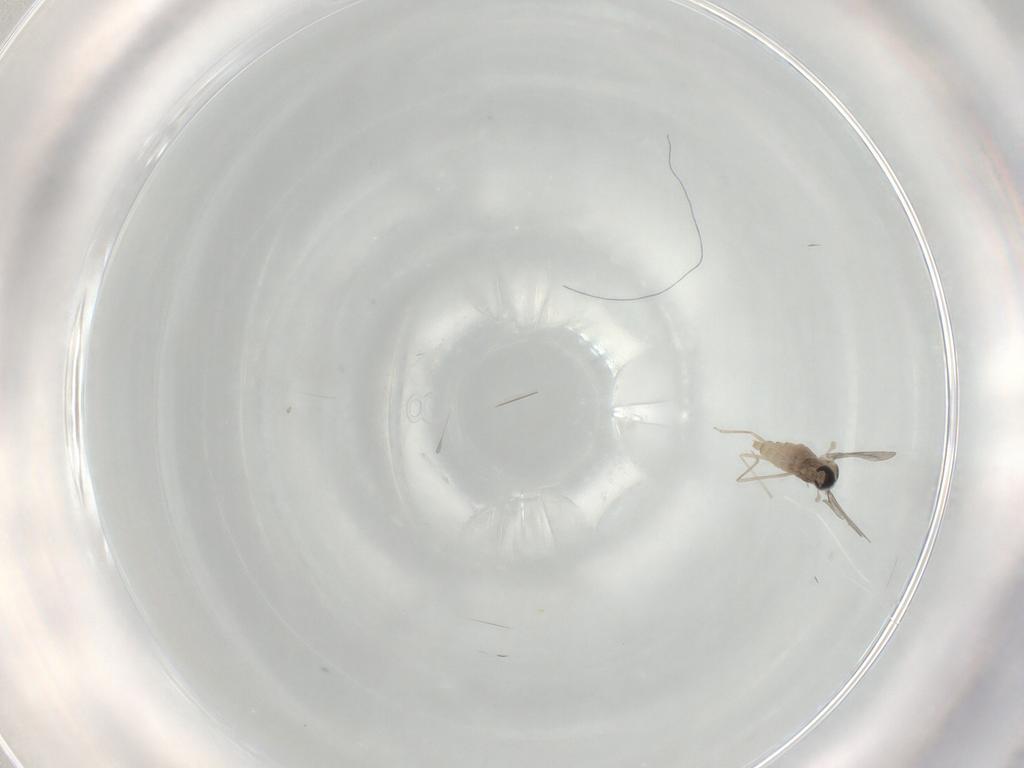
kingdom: Animalia
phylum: Arthropoda
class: Insecta
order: Diptera
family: Cecidomyiidae
